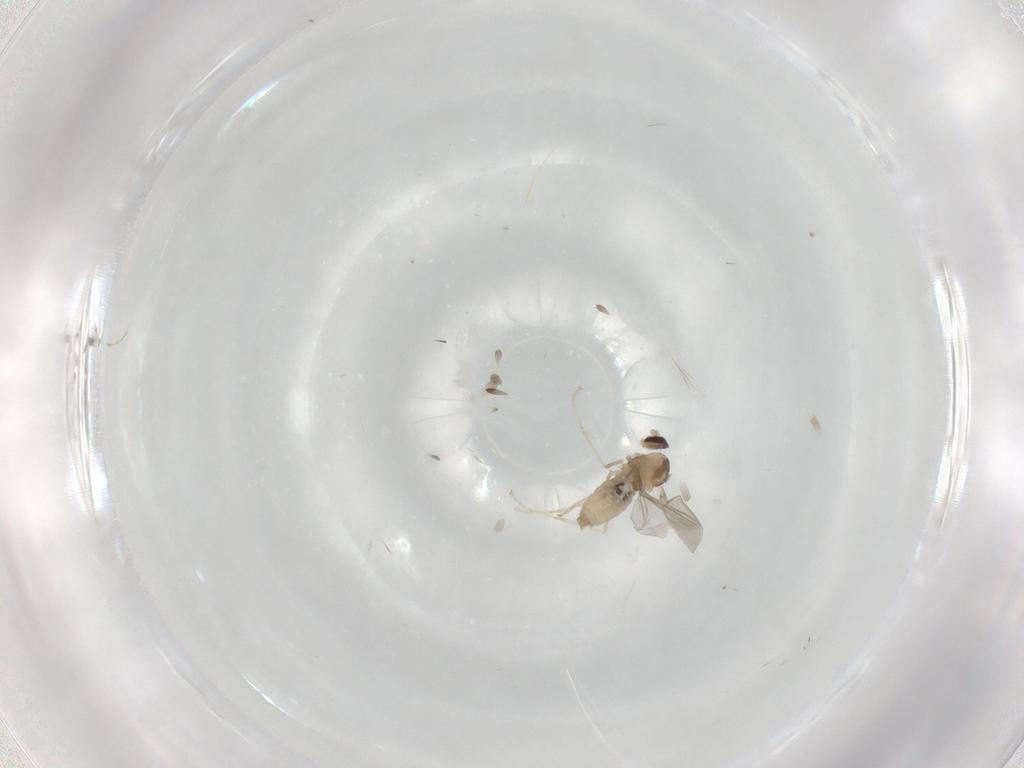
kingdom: Animalia
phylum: Arthropoda
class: Insecta
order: Diptera
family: Cecidomyiidae
